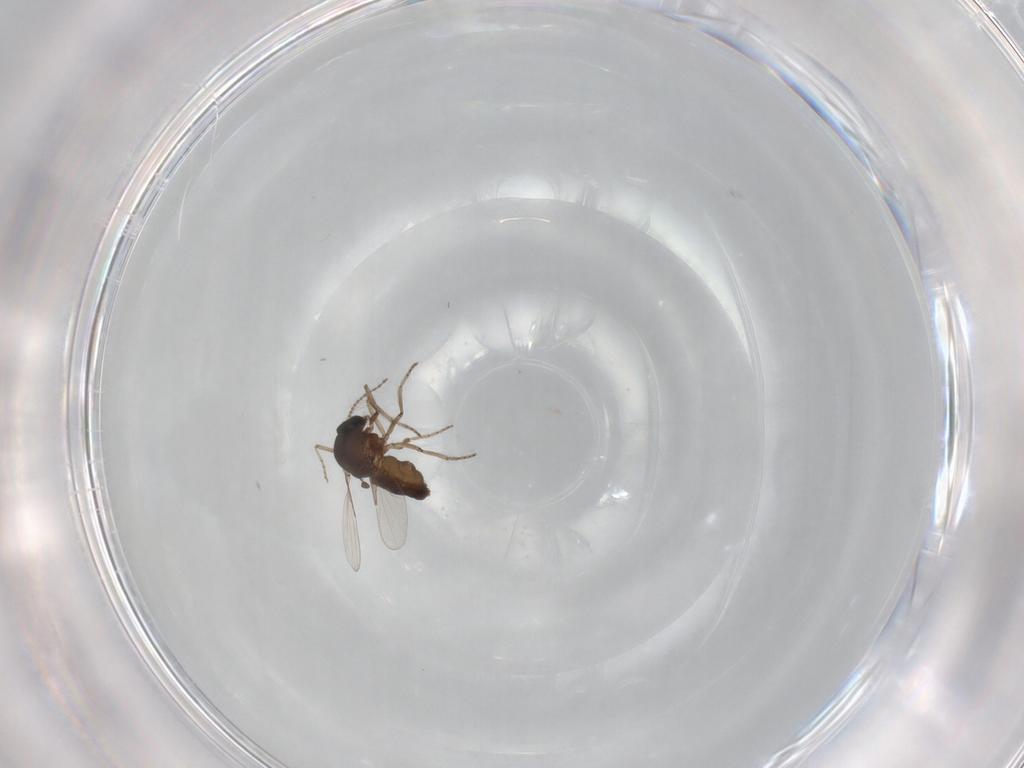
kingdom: Animalia
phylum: Arthropoda
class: Insecta
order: Diptera
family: Ceratopogonidae
